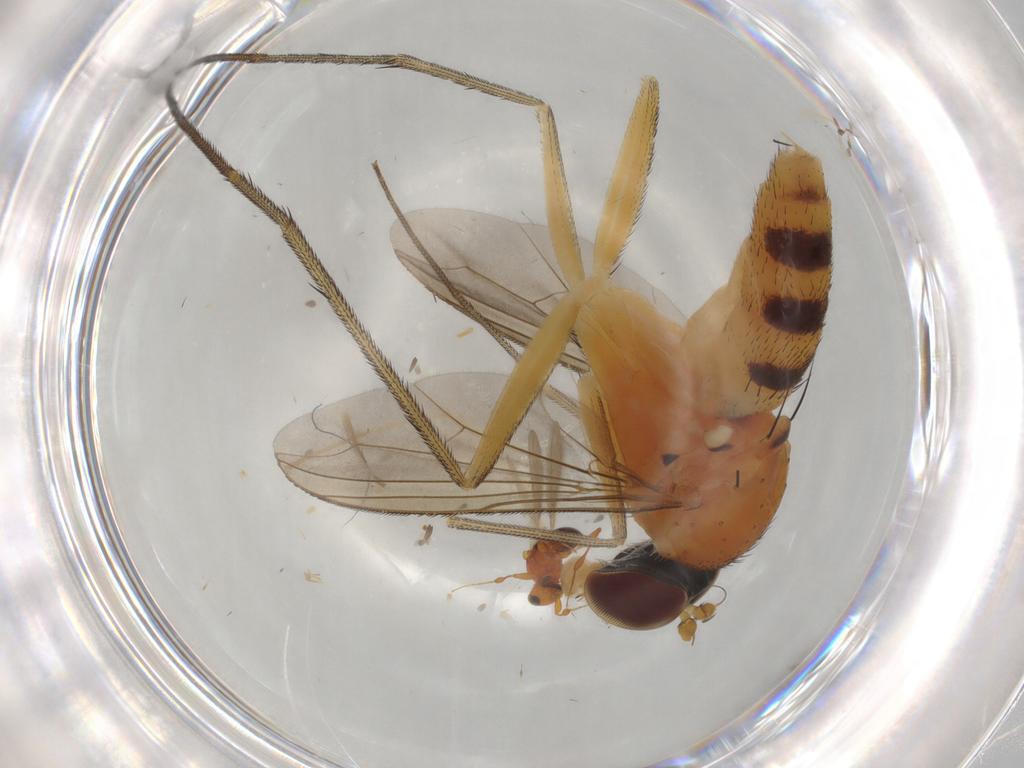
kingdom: Animalia
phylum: Arthropoda
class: Insecta
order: Diptera
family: Dolichopodidae
